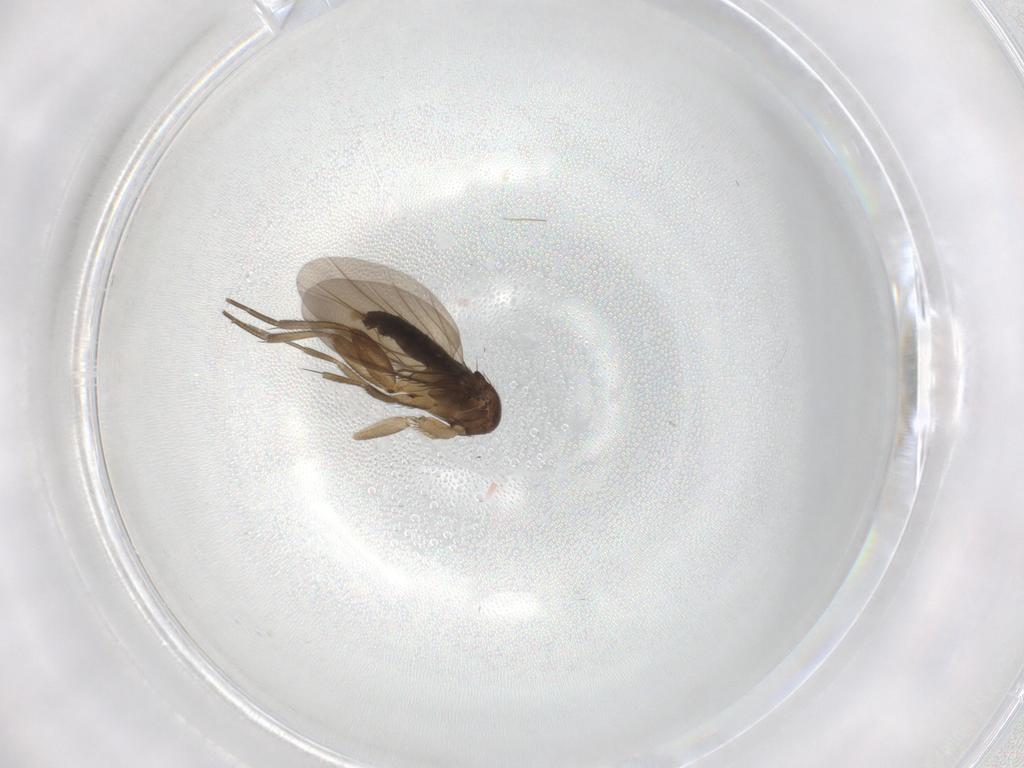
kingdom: Animalia
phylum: Arthropoda
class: Insecta
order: Diptera
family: Phoridae
